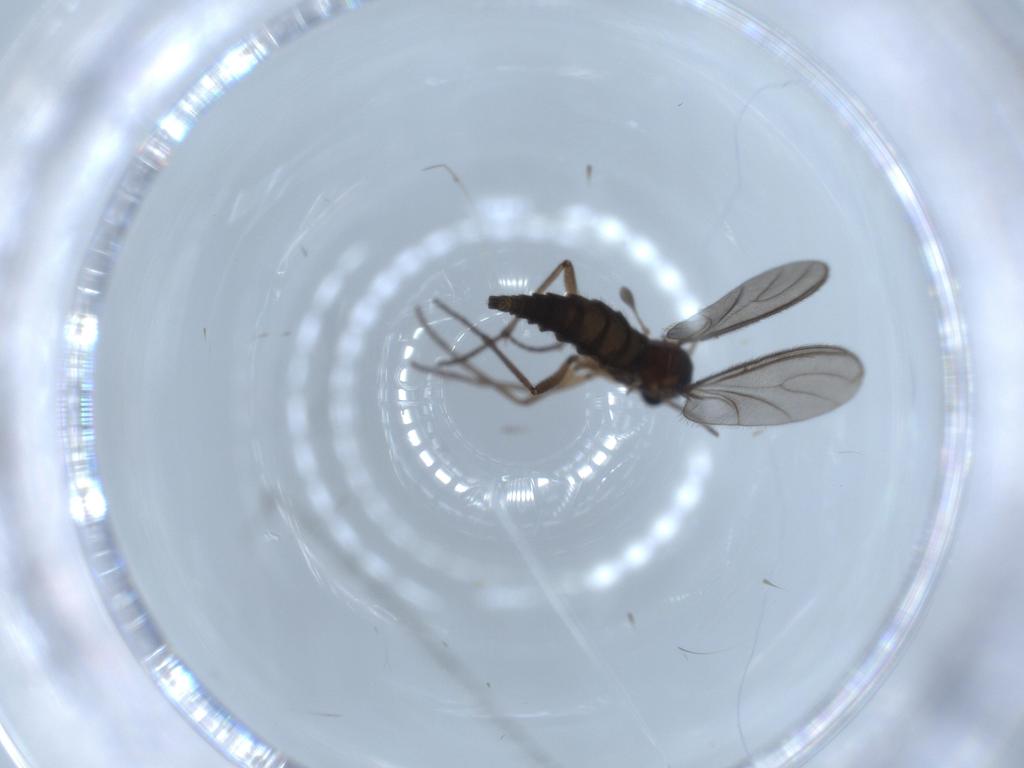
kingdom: Animalia
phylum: Arthropoda
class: Insecta
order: Diptera
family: Sciaridae
